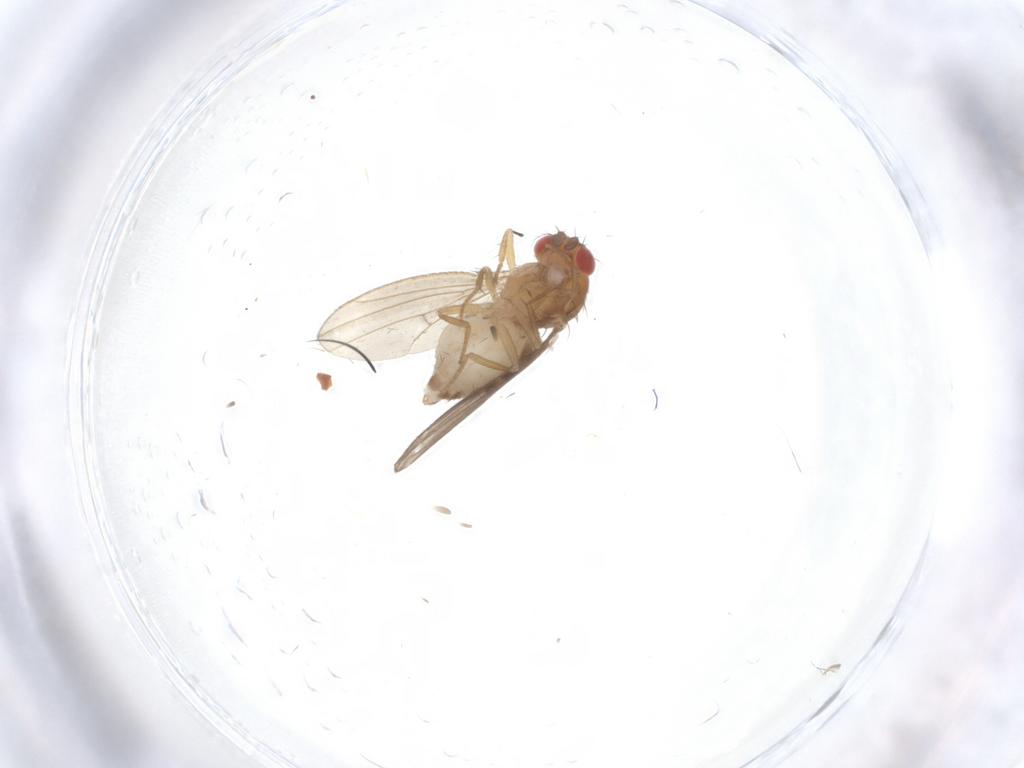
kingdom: Animalia
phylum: Arthropoda
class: Insecta
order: Diptera
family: Drosophilidae
